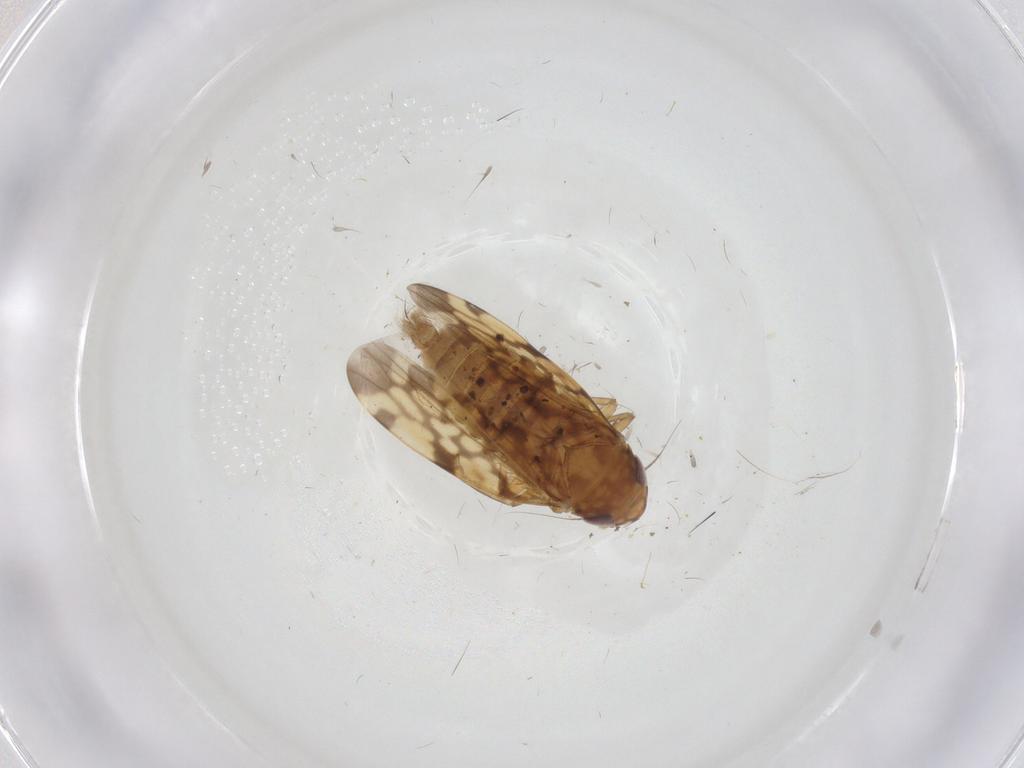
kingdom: Animalia
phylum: Arthropoda
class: Insecta
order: Hemiptera
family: Cicadellidae
